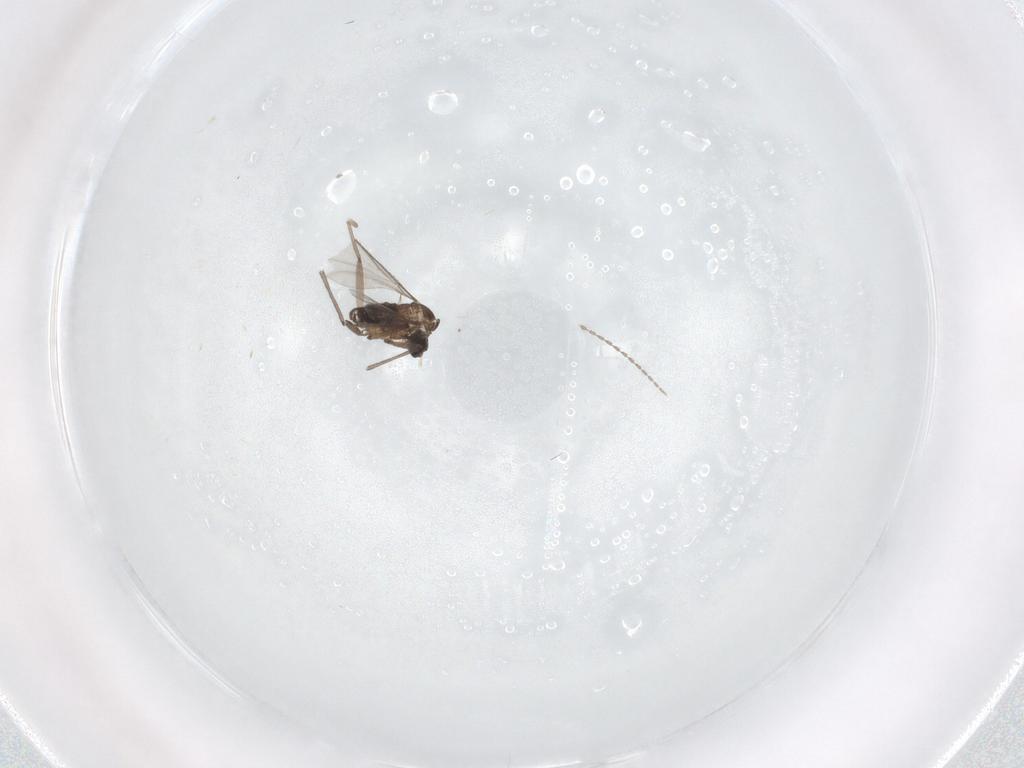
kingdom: Animalia
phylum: Arthropoda
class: Insecta
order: Diptera
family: Sciaridae
